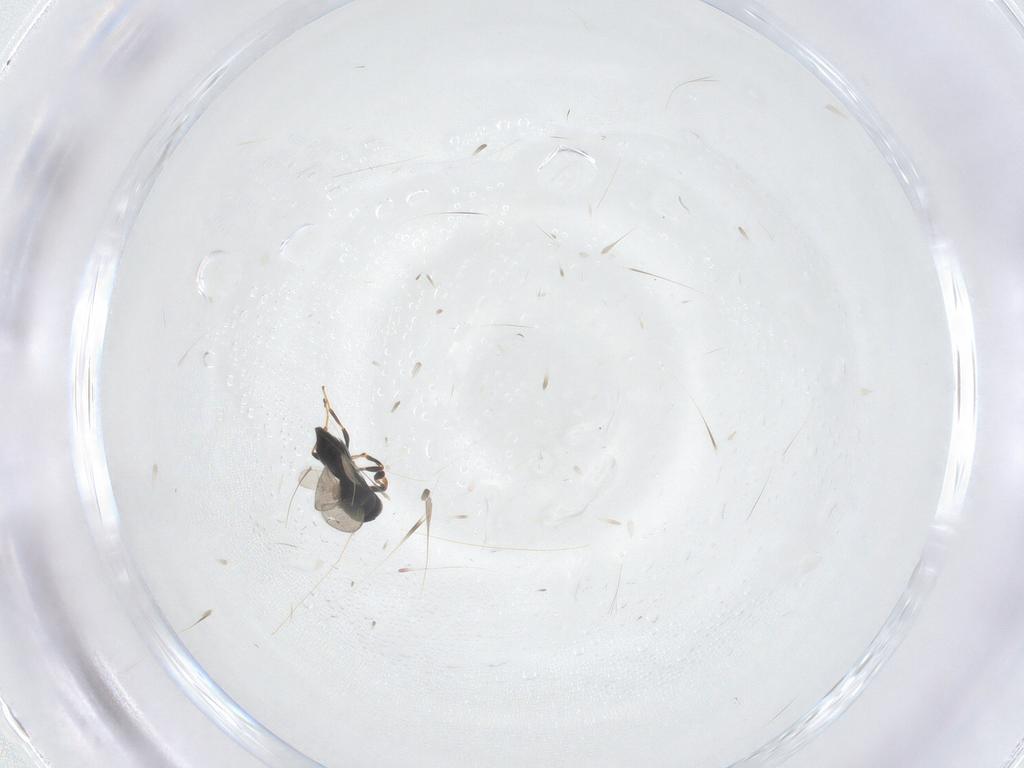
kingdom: Animalia
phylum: Arthropoda
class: Insecta
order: Hymenoptera
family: Platygastridae
